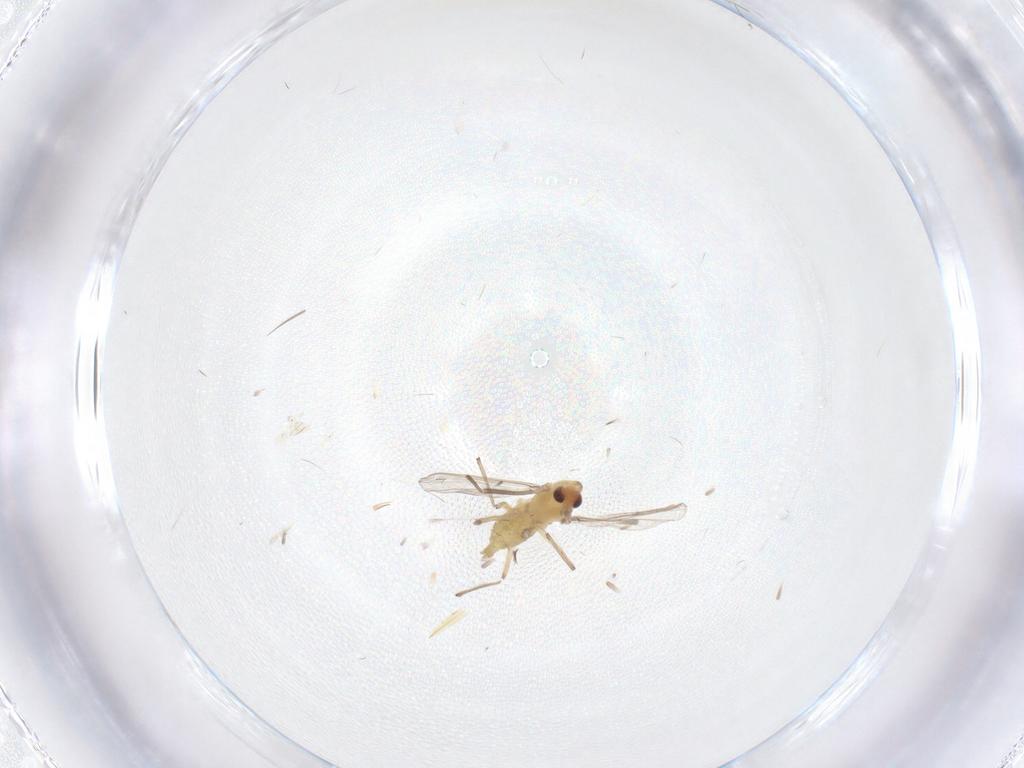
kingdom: Animalia
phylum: Arthropoda
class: Insecta
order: Diptera
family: Chironomidae
